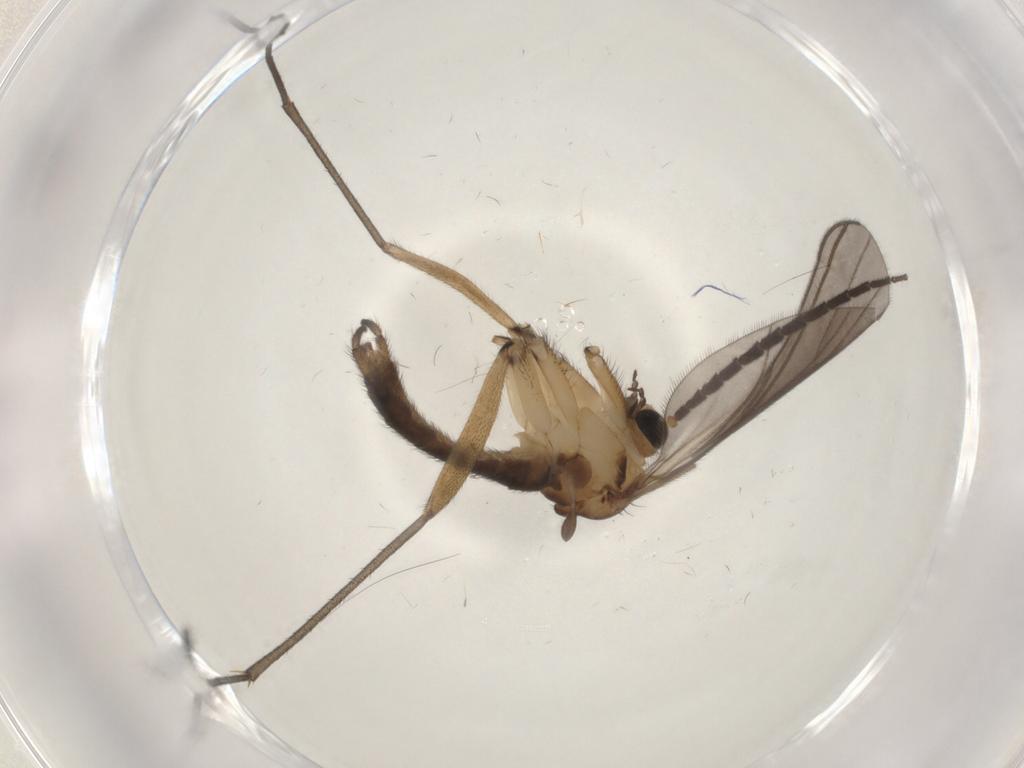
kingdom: Animalia
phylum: Arthropoda
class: Insecta
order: Diptera
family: Sciaridae
